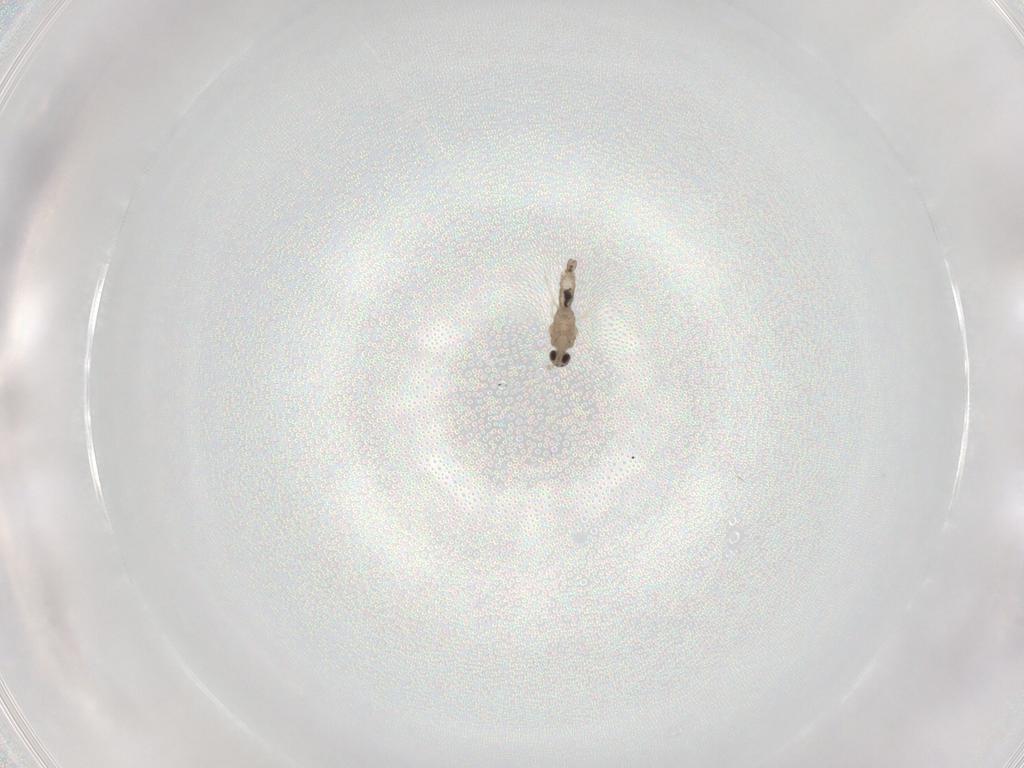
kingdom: Animalia
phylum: Arthropoda
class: Insecta
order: Diptera
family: Cecidomyiidae
